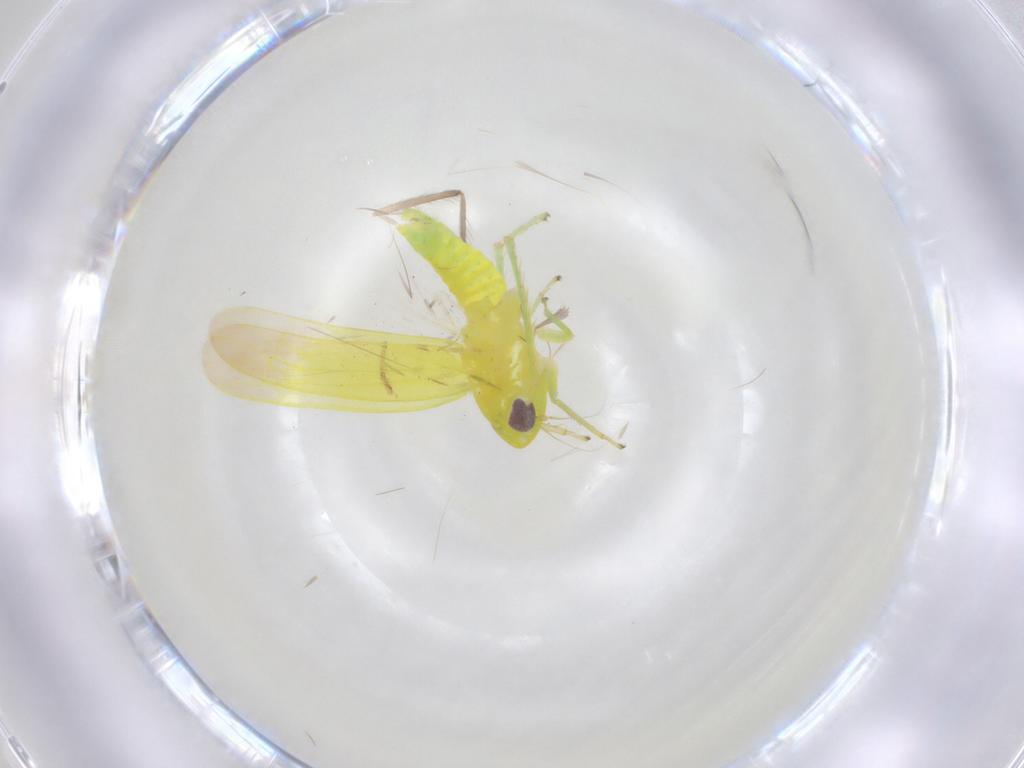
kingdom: Animalia
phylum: Arthropoda
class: Insecta
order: Hemiptera
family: Cicadellidae
